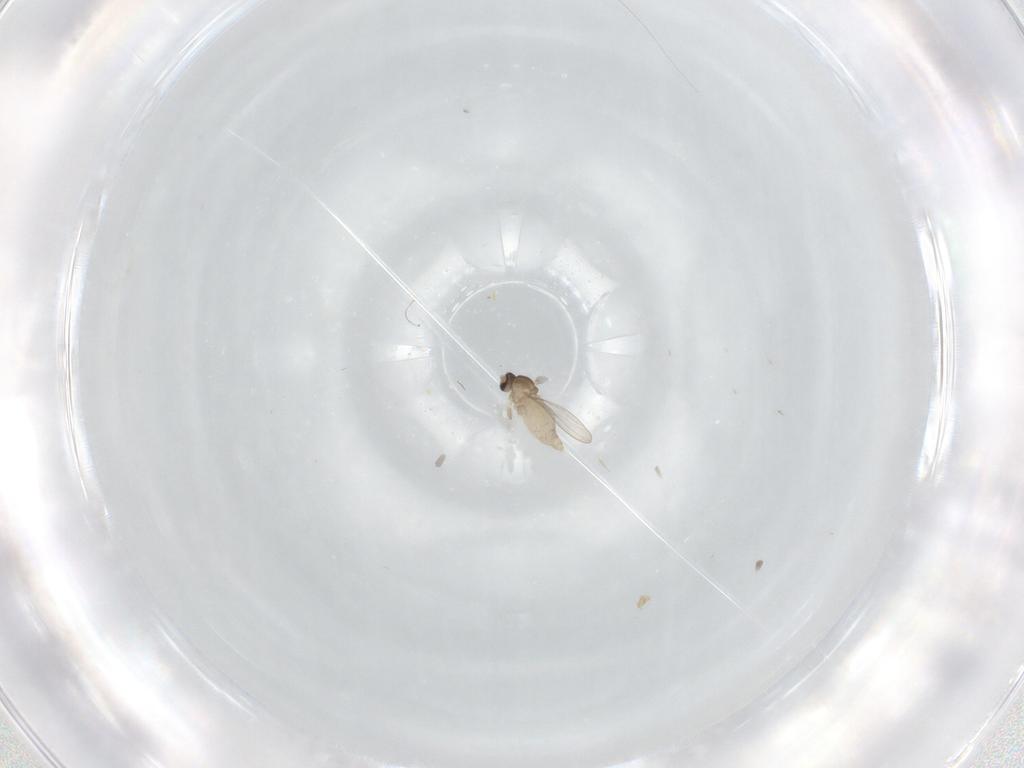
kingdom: Animalia
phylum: Arthropoda
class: Insecta
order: Diptera
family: Cecidomyiidae
